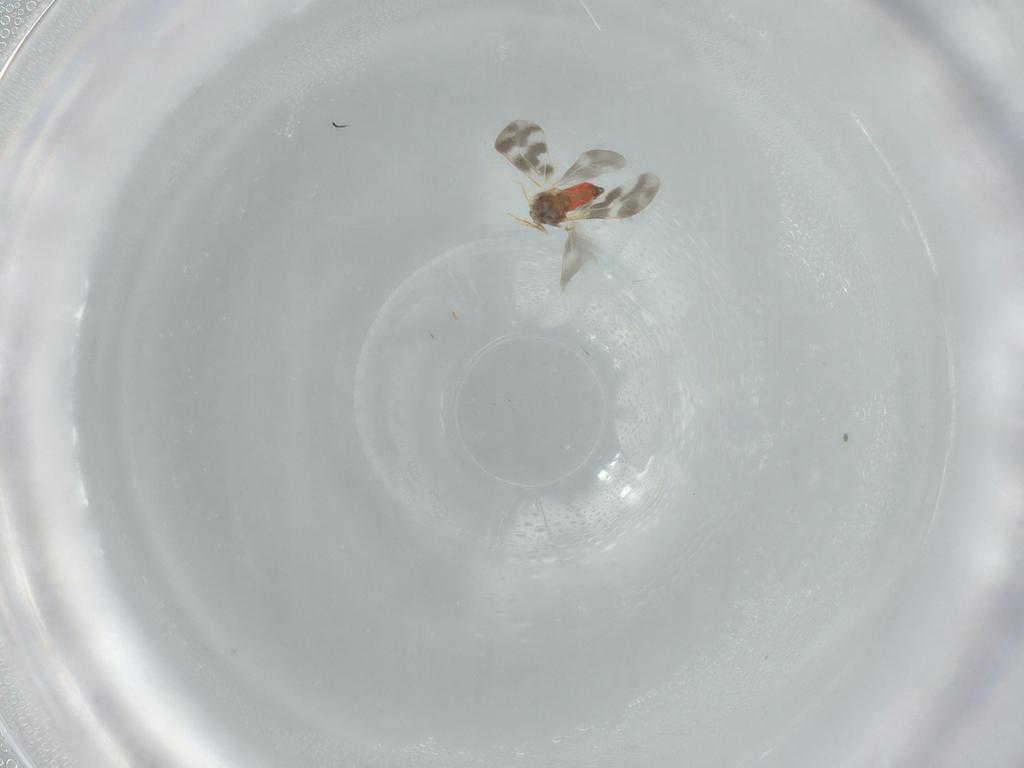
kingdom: Animalia
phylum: Arthropoda
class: Insecta
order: Hemiptera
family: Aleyrodidae
